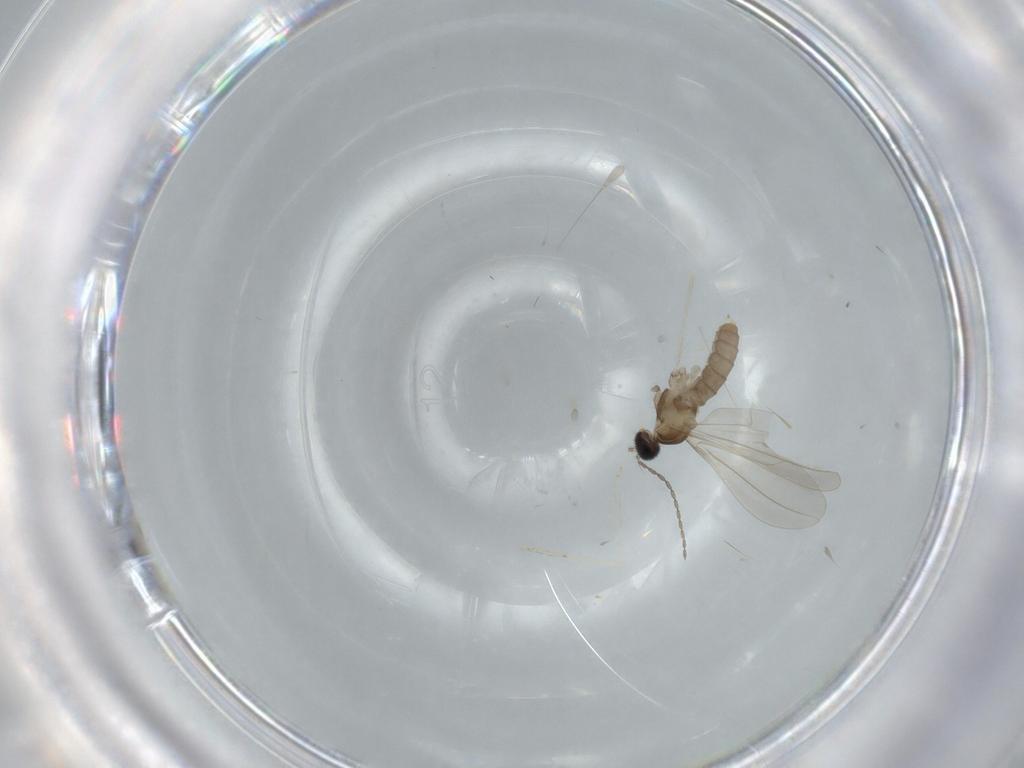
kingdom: Animalia
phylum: Arthropoda
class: Insecta
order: Diptera
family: Cecidomyiidae
